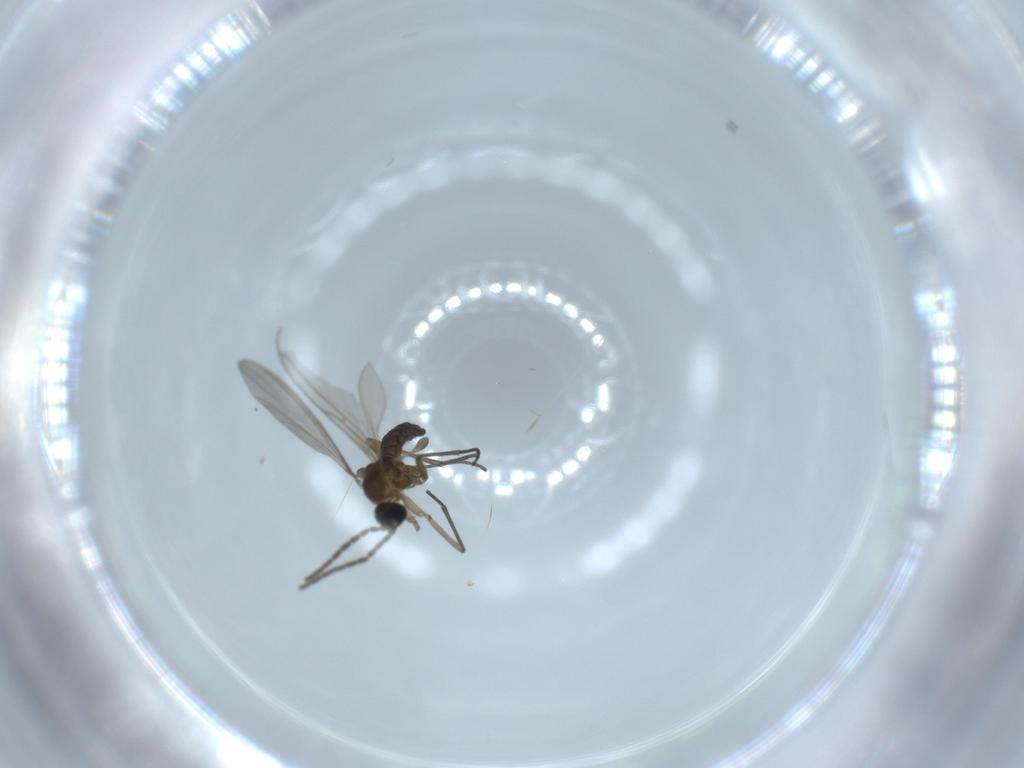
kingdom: Animalia
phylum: Arthropoda
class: Insecta
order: Diptera
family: Sciaridae
